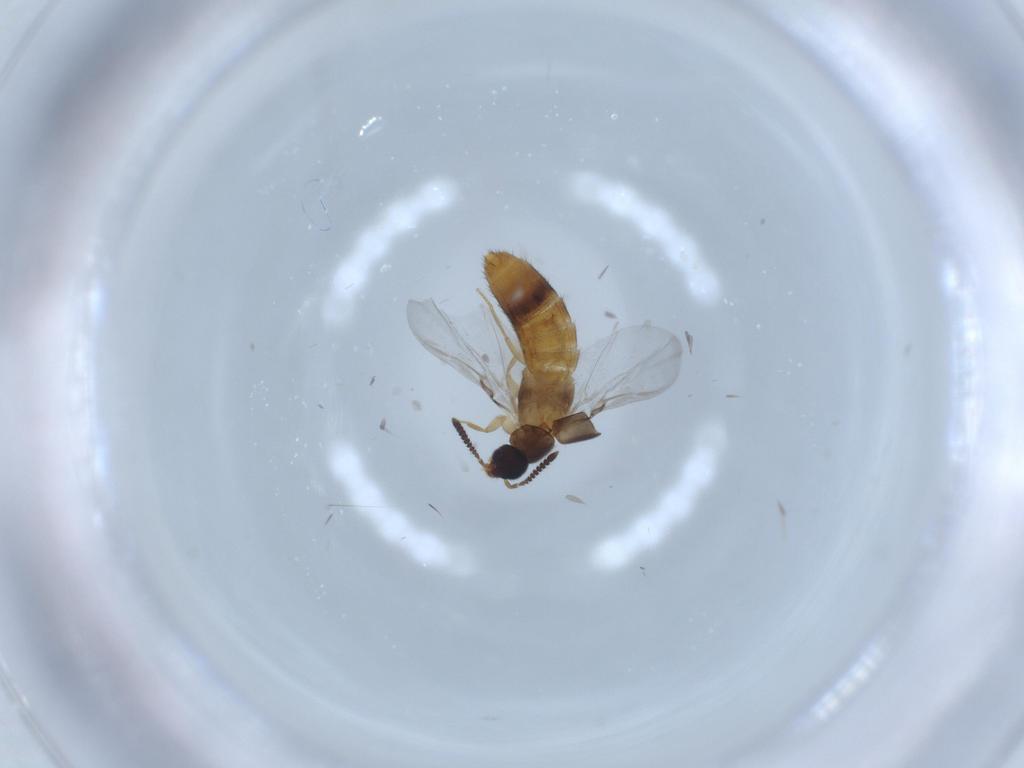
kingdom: Animalia
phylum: Arthropoda
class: Insecta
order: Coleoptera
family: Staphylinidae
